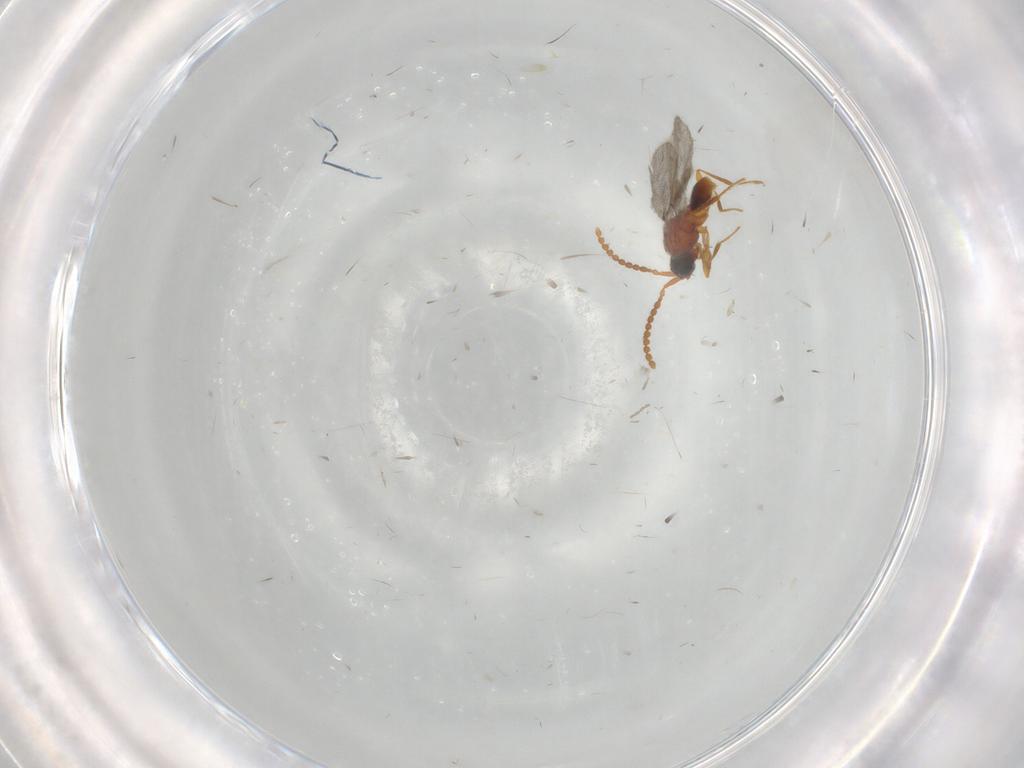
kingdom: Animalia
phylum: Arthropoda
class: Insecta
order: Hymenoptera
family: Diapriidae
